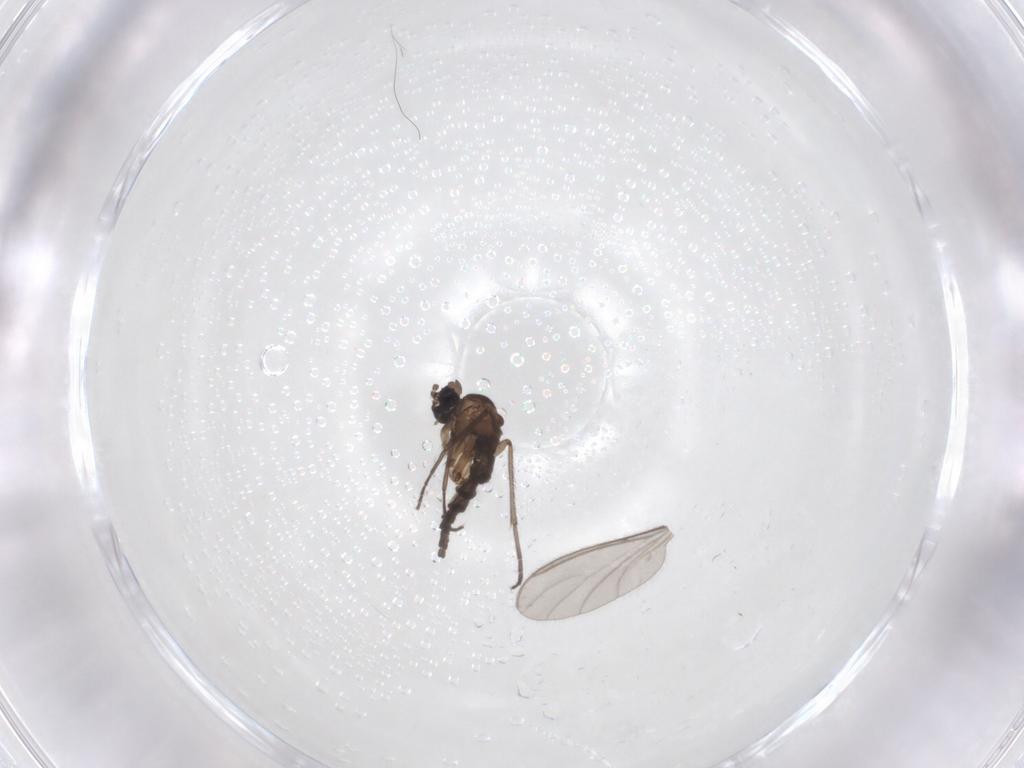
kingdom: Animalia
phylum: Arthropoda
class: Insecta
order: Diptera
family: Sciaridae
